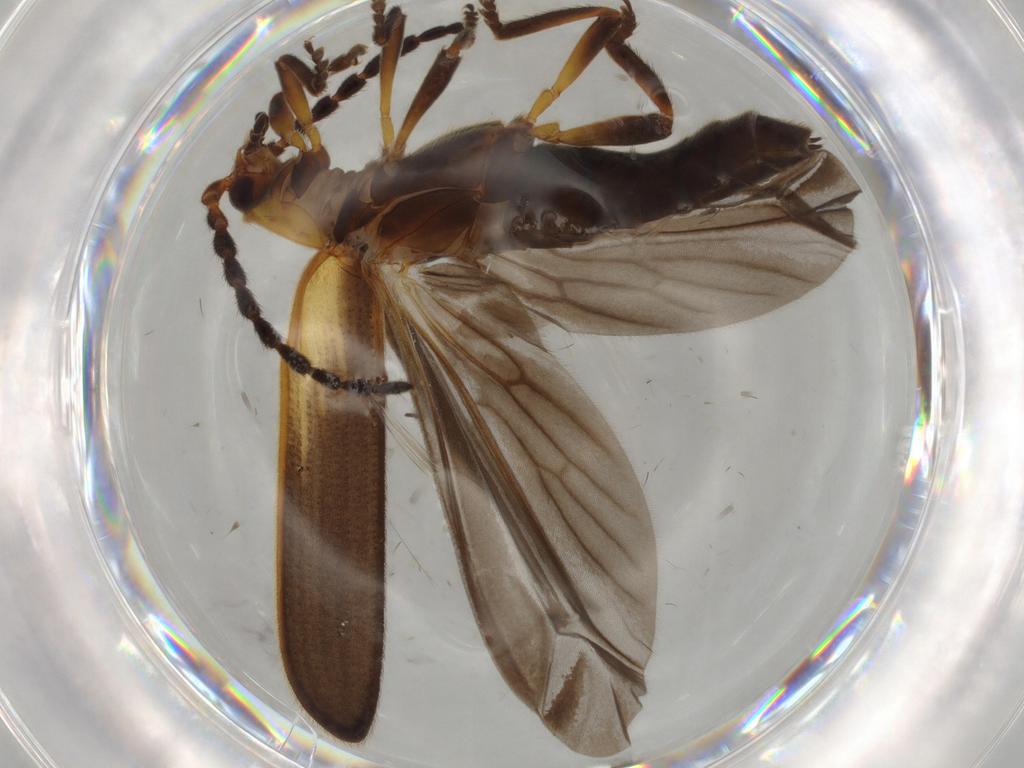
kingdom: Animalia
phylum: Arthropoda
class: Insecta
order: Coleoptera
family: Lycidae
